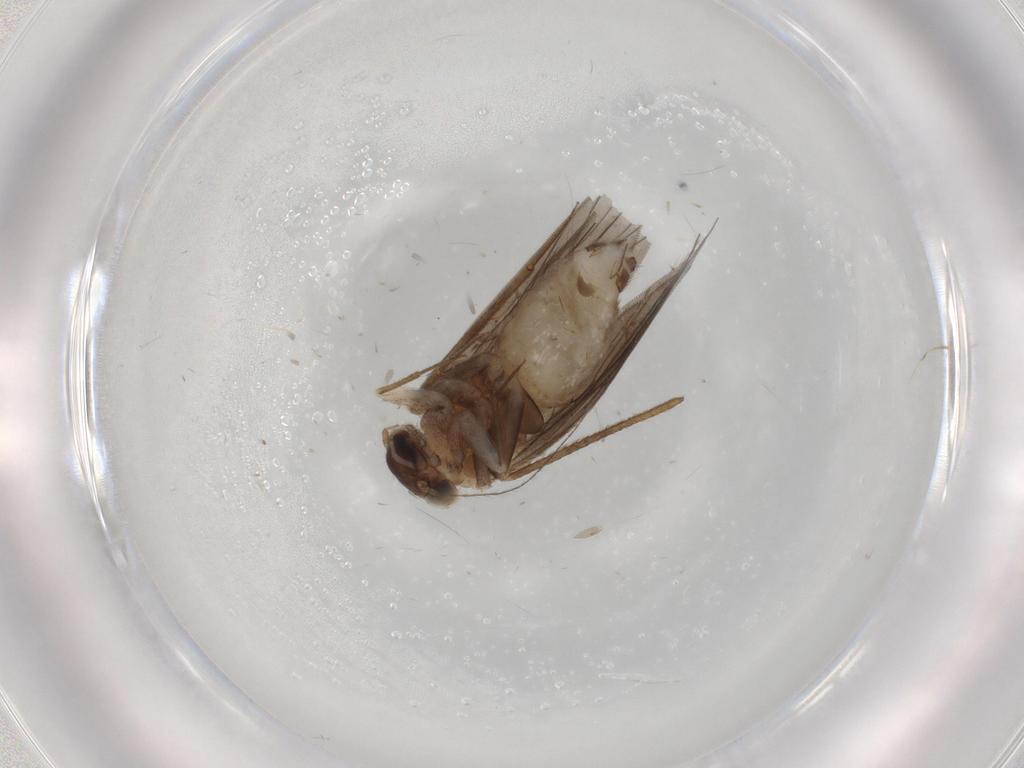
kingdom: Animalia
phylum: Arthropoda
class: Insecta
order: Psocodea
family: Lepidopsocidae
